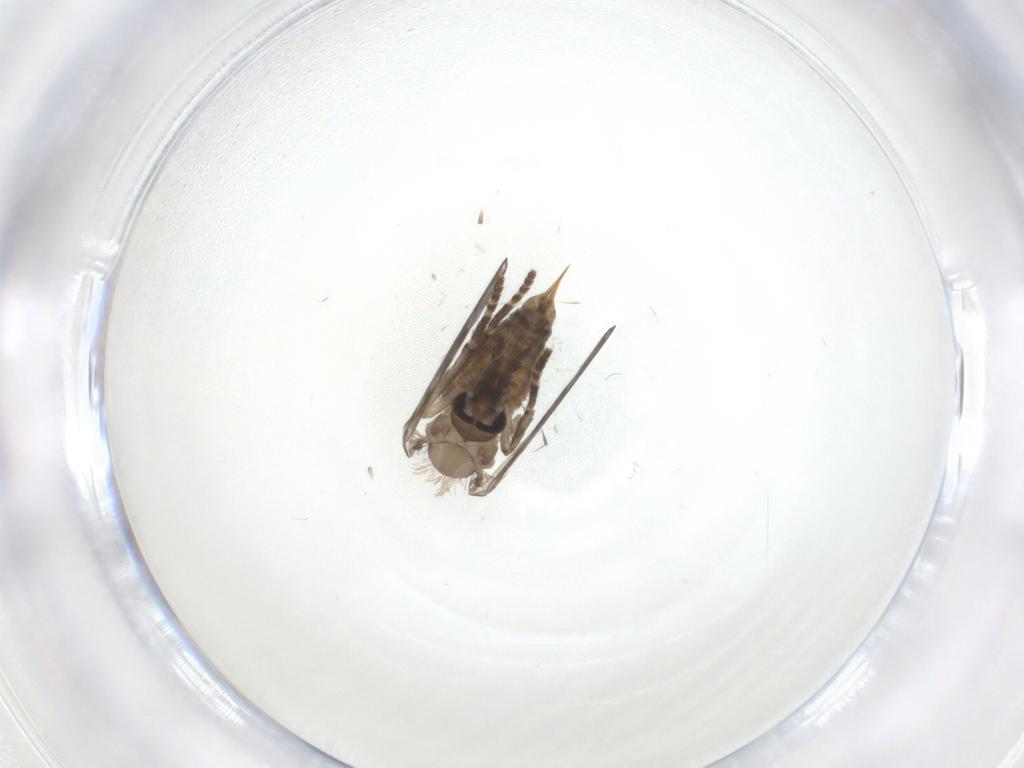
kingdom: Animalia
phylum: Arthropoda
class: Insecta
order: Diptera
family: Psychodidae
